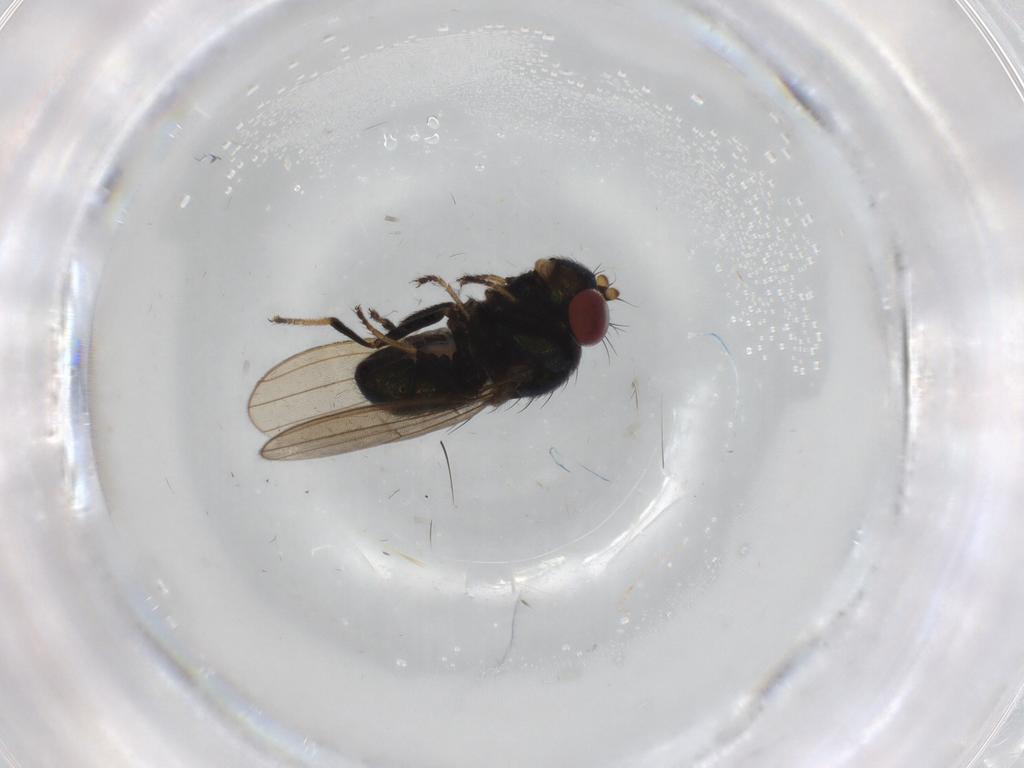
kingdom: Animalia
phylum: Arthropoda
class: Insecta
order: Diptera
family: Ephydridae
